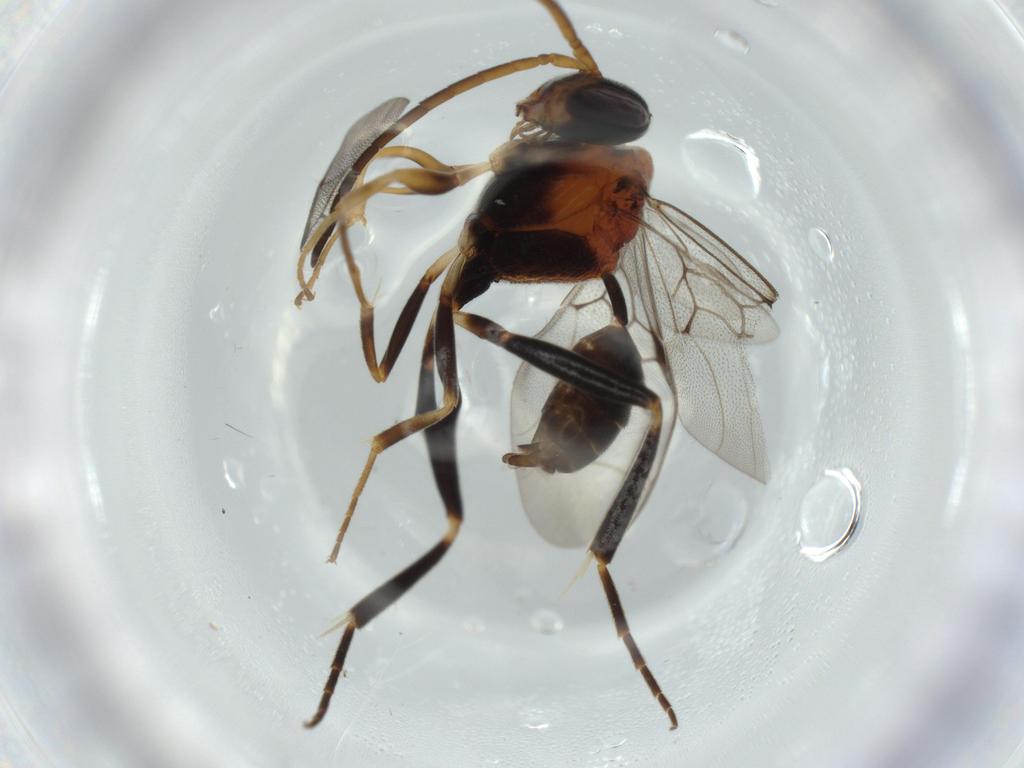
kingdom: Animalia
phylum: Arthropoda
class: Insecta
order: Hymenoptera
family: Evaniidae
